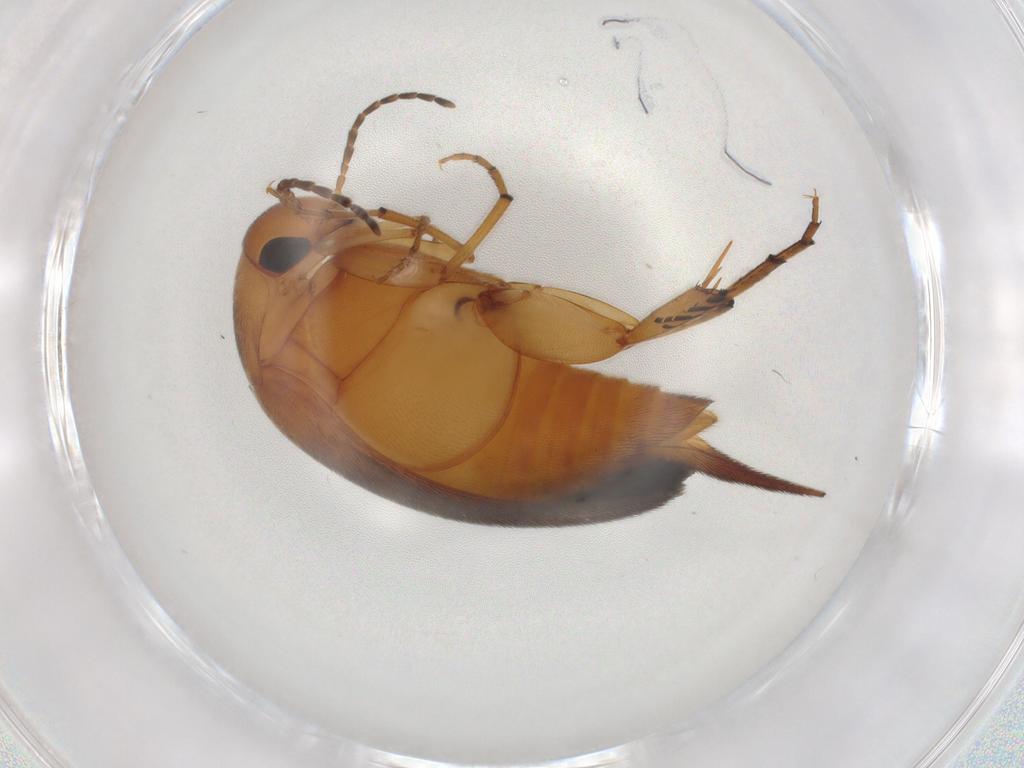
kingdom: Animalia
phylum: Arthropoda
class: Insecta
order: Coleoptera
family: Mordellidae
